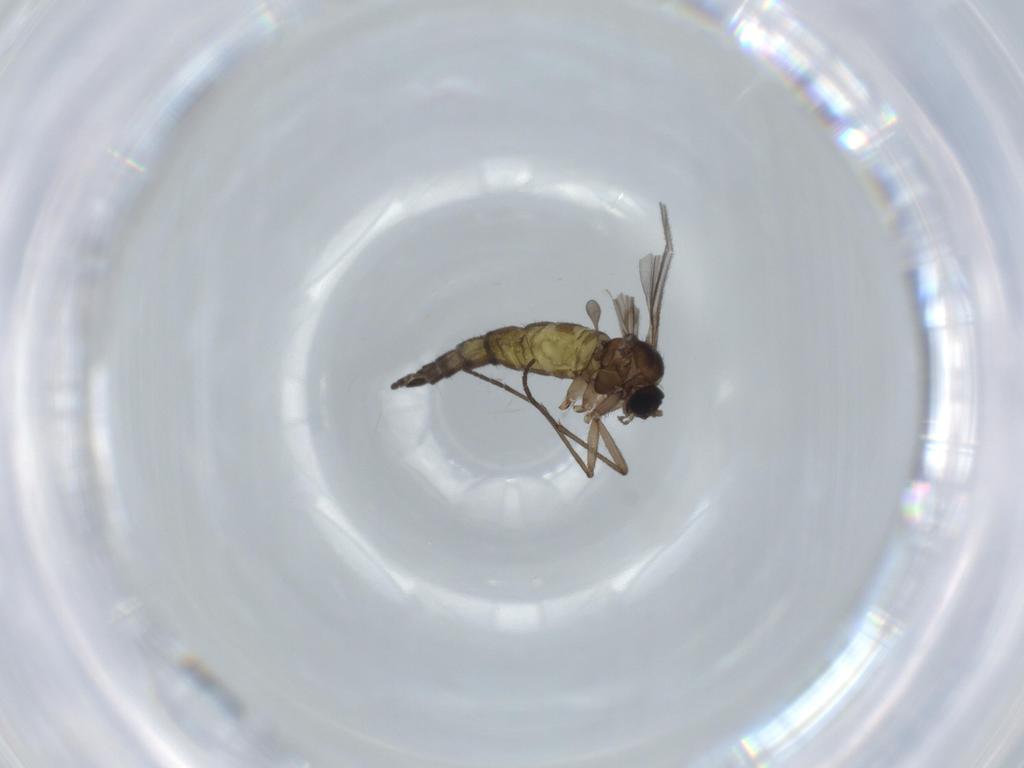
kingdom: Animalia
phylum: Arthropoda
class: Insecta
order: Diptera
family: Sciaridae
